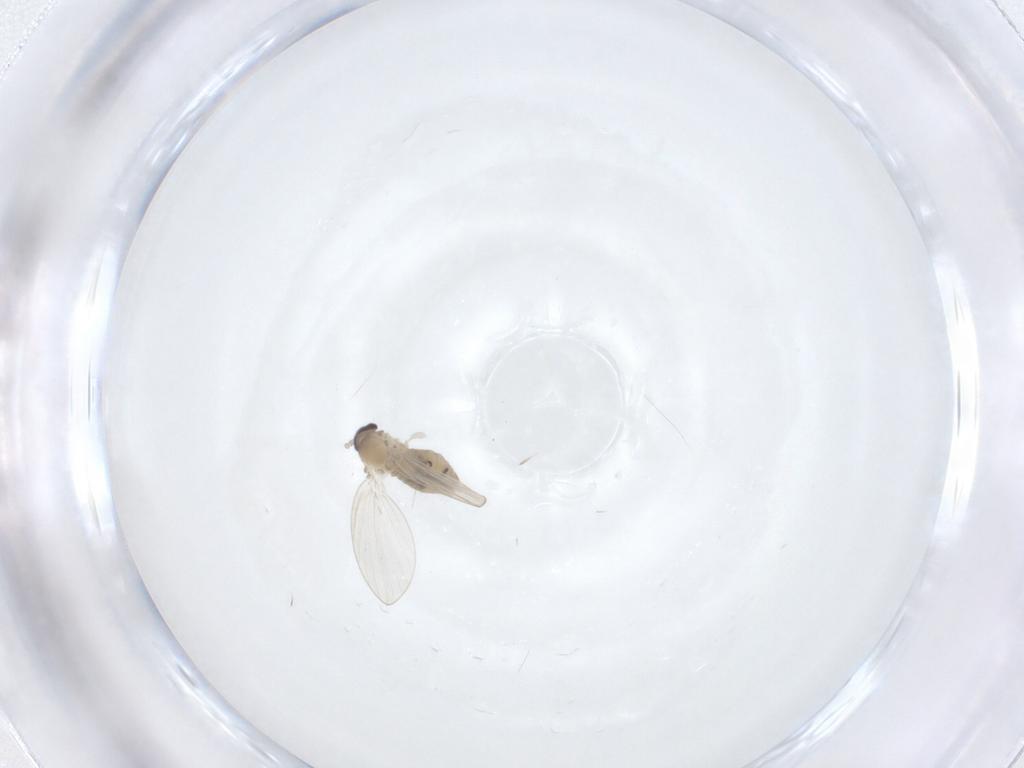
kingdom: Animalia
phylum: Arthropoda
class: Insecta
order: Diptera
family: Psychodidae
